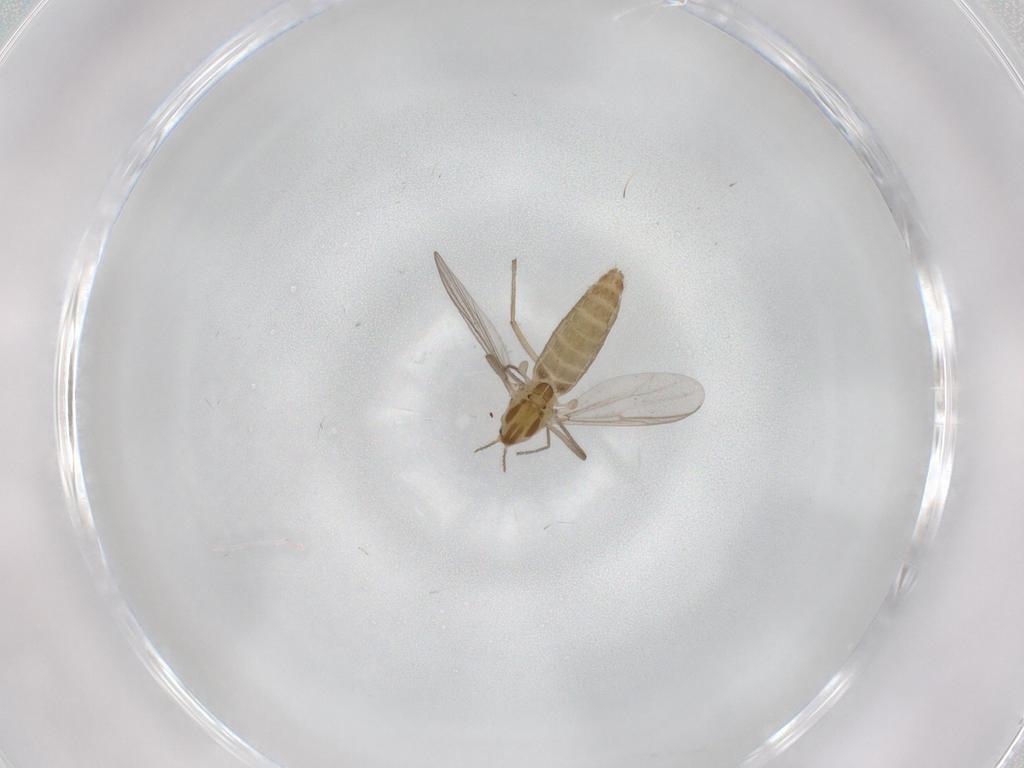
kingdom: Animalia
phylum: Arthropoda
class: Insecta
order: Diptera
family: Chironomidae
